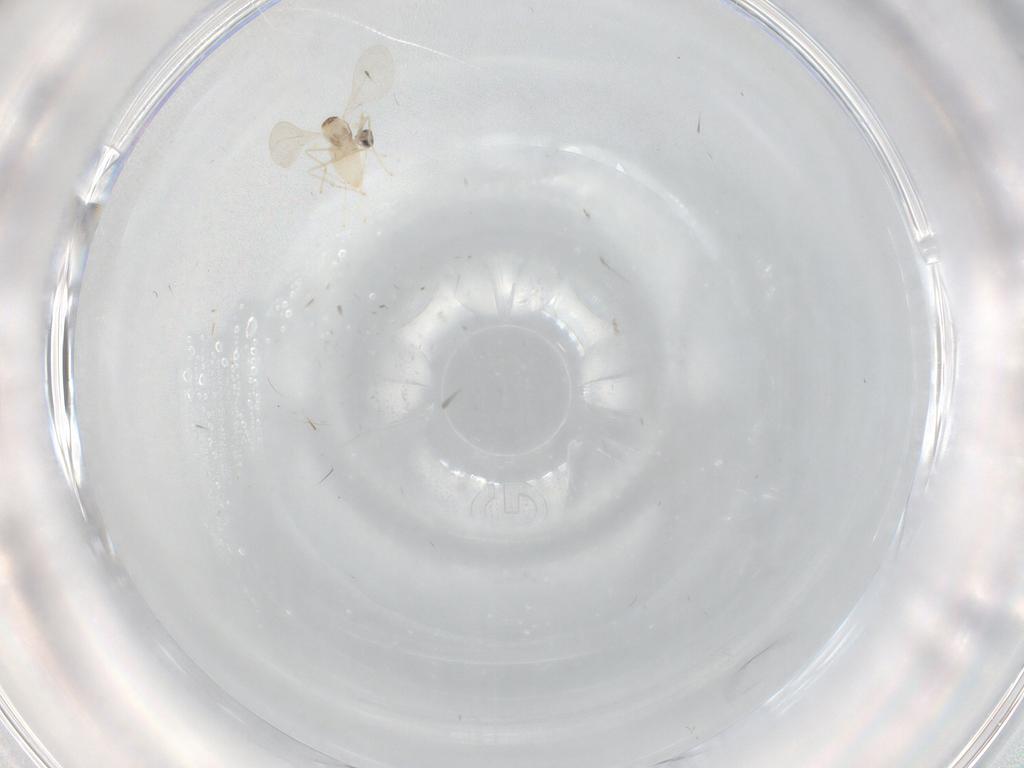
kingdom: Animalia
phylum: Arthropoda
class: Insecta
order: Diptera
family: Cecidomyiidae
